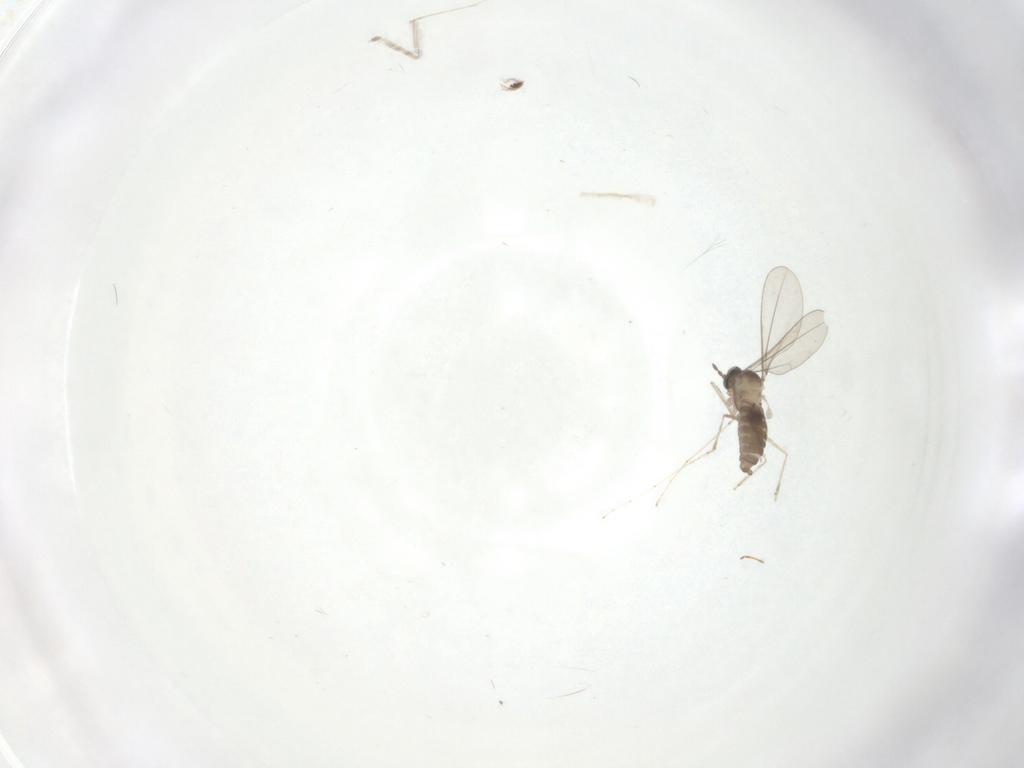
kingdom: Animalia
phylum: Arthropoda
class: Insecta
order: Diptera
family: Cecidomyiidae
